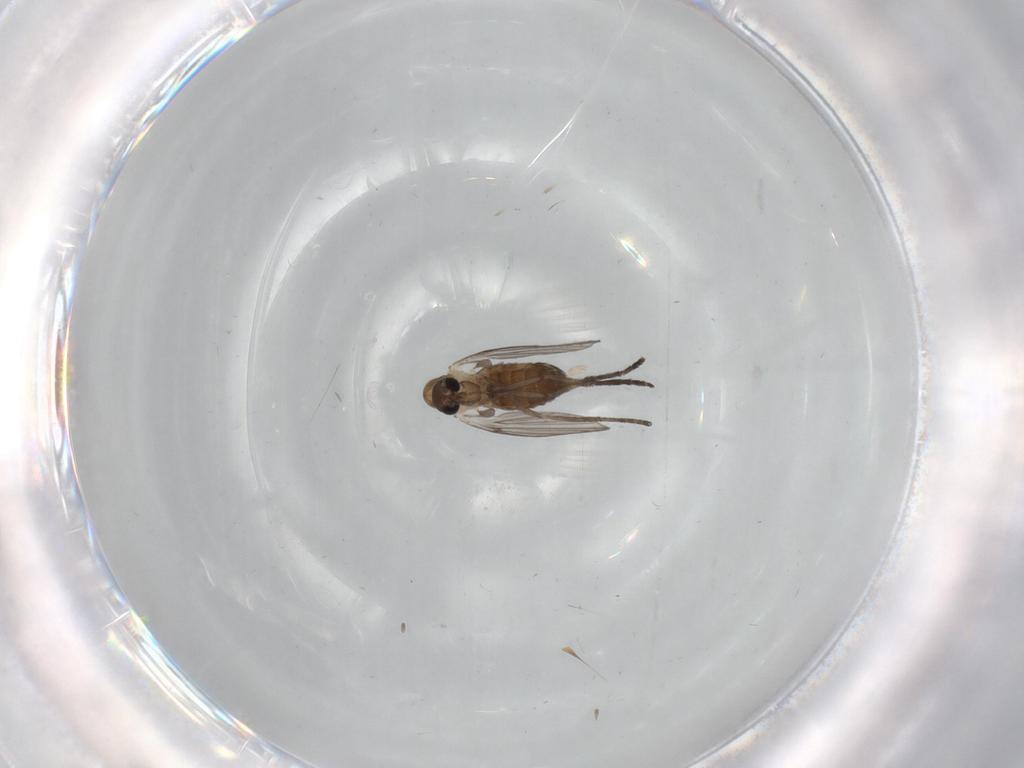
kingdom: Animalia
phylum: Arthropoda
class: Insecta
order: Diptera
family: Psychodidae
